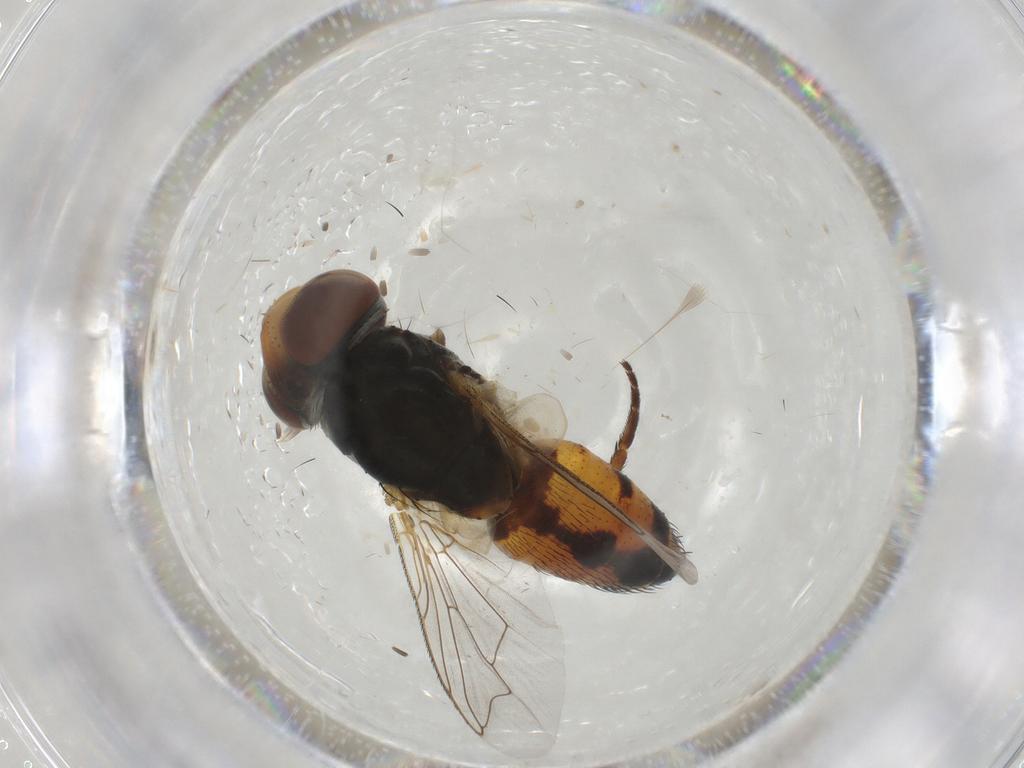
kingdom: Animalia
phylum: Arthropoda
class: Insecta
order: Diptera
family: Sarcophagidae
